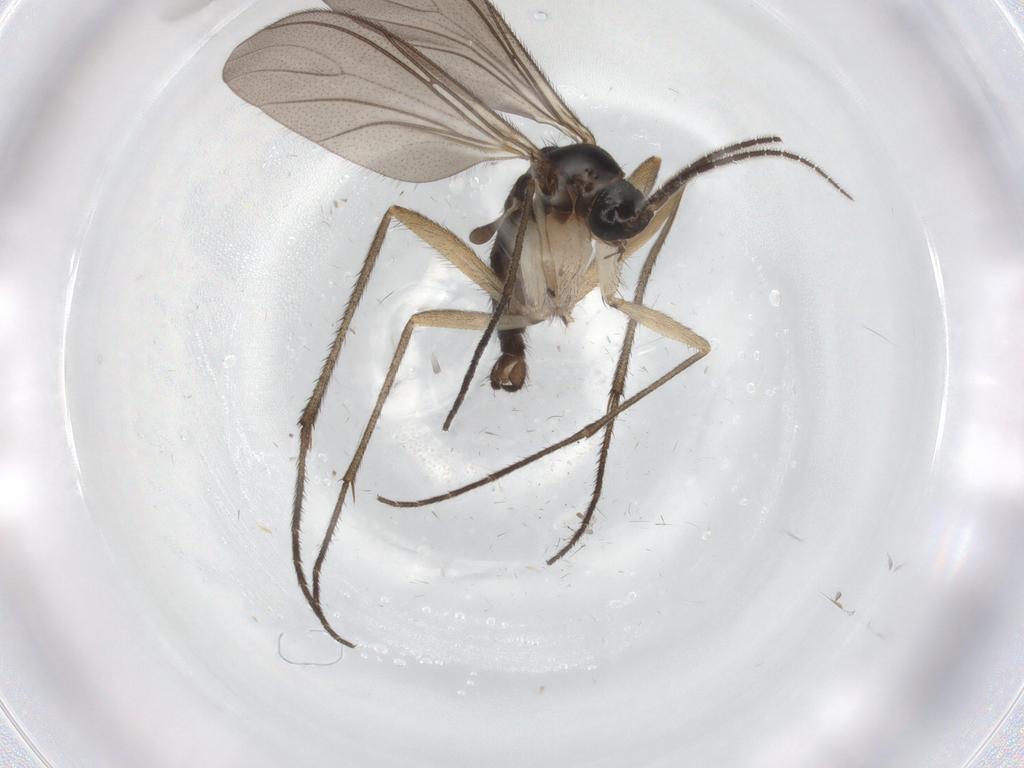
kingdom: Animalia
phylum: Arthropoda
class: Insecta
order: Diptera
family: Sciaridae
